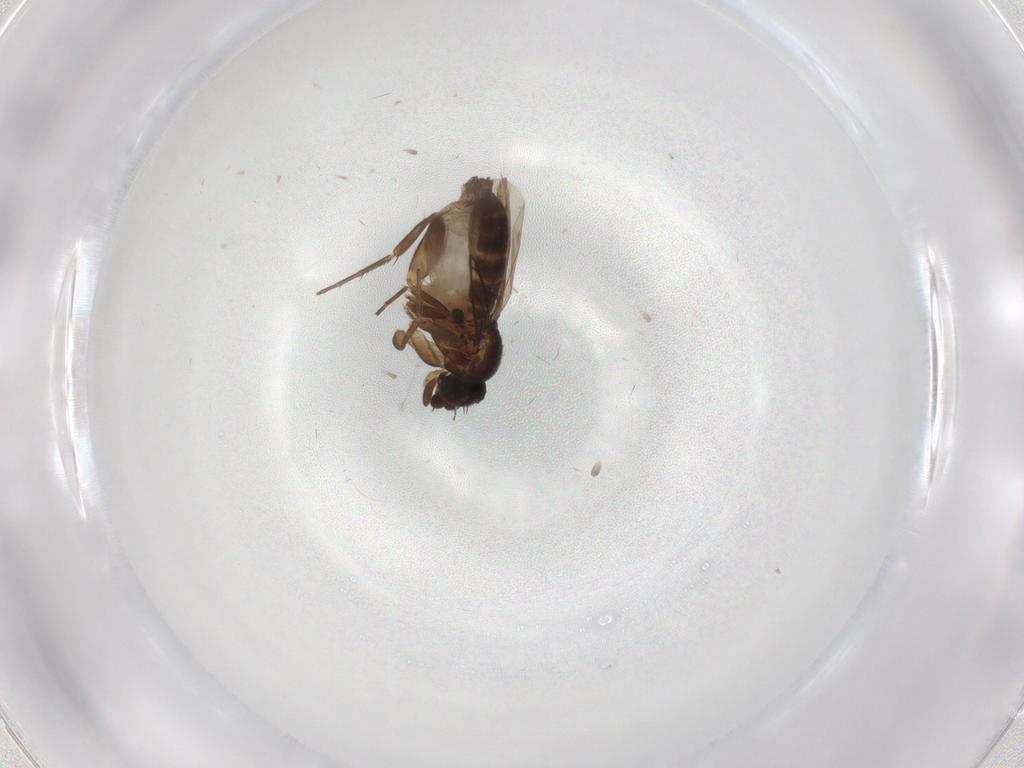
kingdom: Animalia
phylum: Arthropoda
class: Insecta
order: Diptera
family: Phoridae
